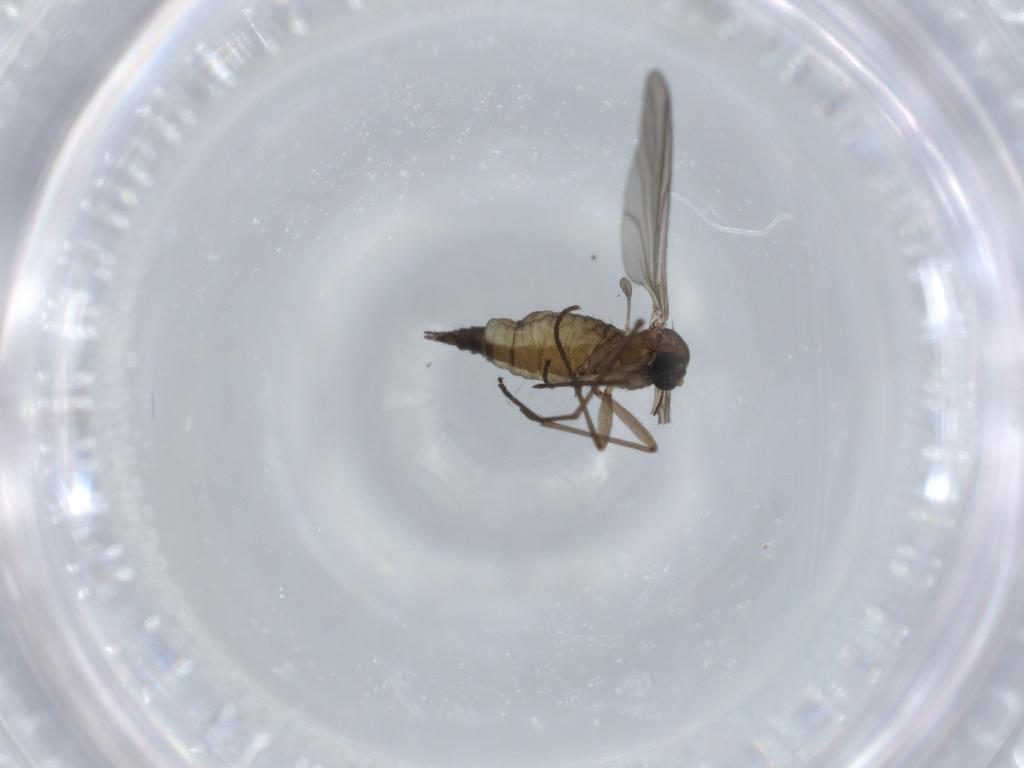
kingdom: Animalia
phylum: Arthropoda
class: Insecta
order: Diptera
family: Sciaridae
